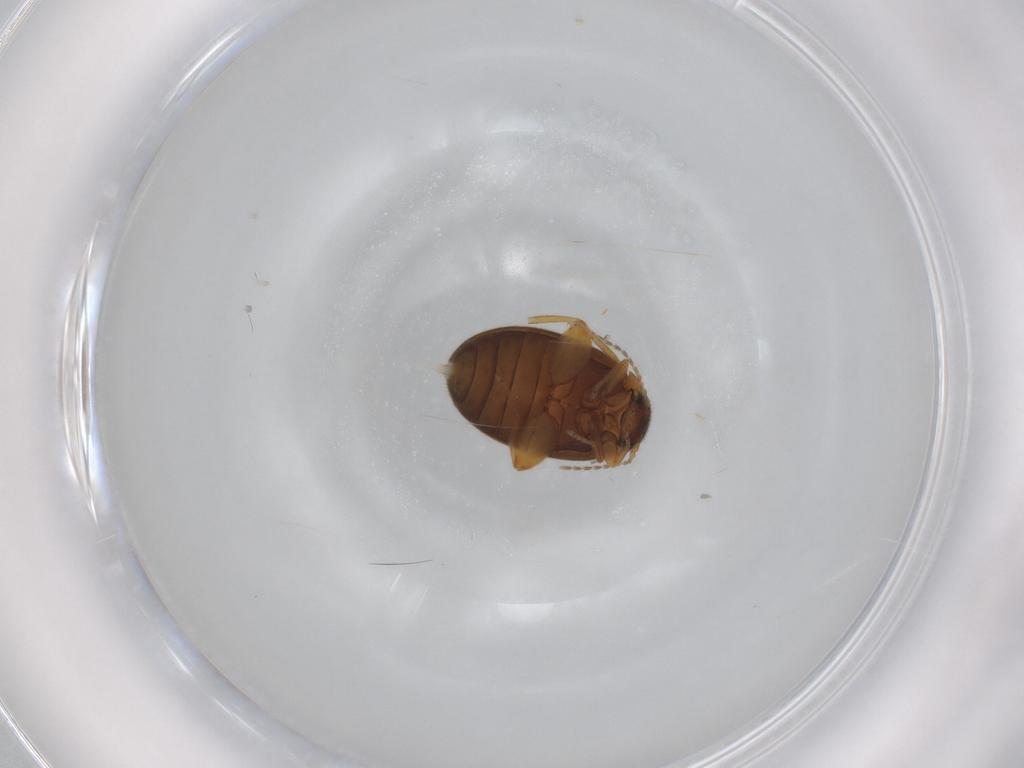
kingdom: Animalia
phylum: Arthropoda
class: Insecta
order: Coleoptera
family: Scirtidae
